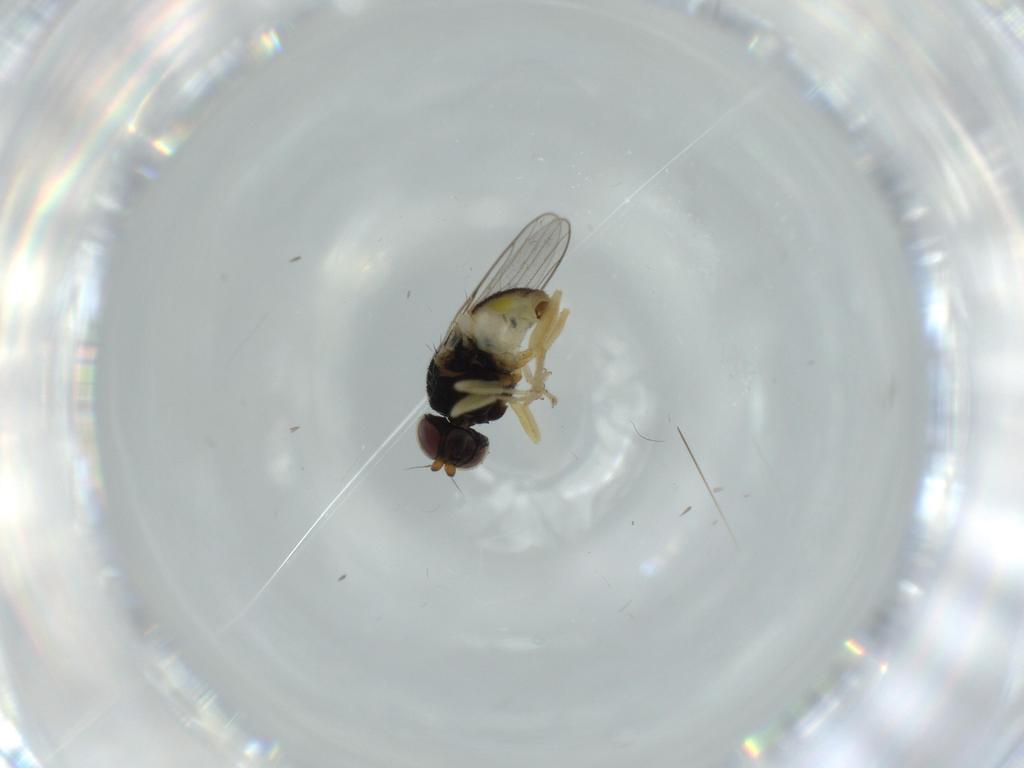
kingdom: Animalia
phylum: Arthropoda
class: Insecta
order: Diptera
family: Chloropidae
